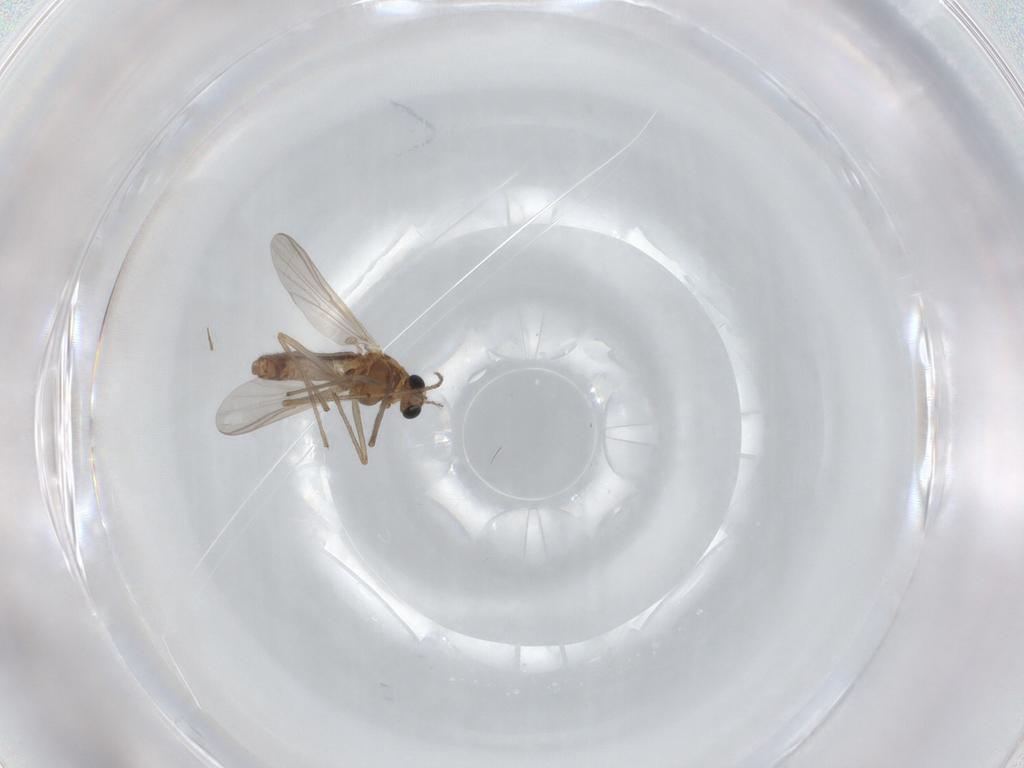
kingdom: Animalia
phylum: Arthropoda
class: Insecta
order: Diptera
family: Chironomidae
